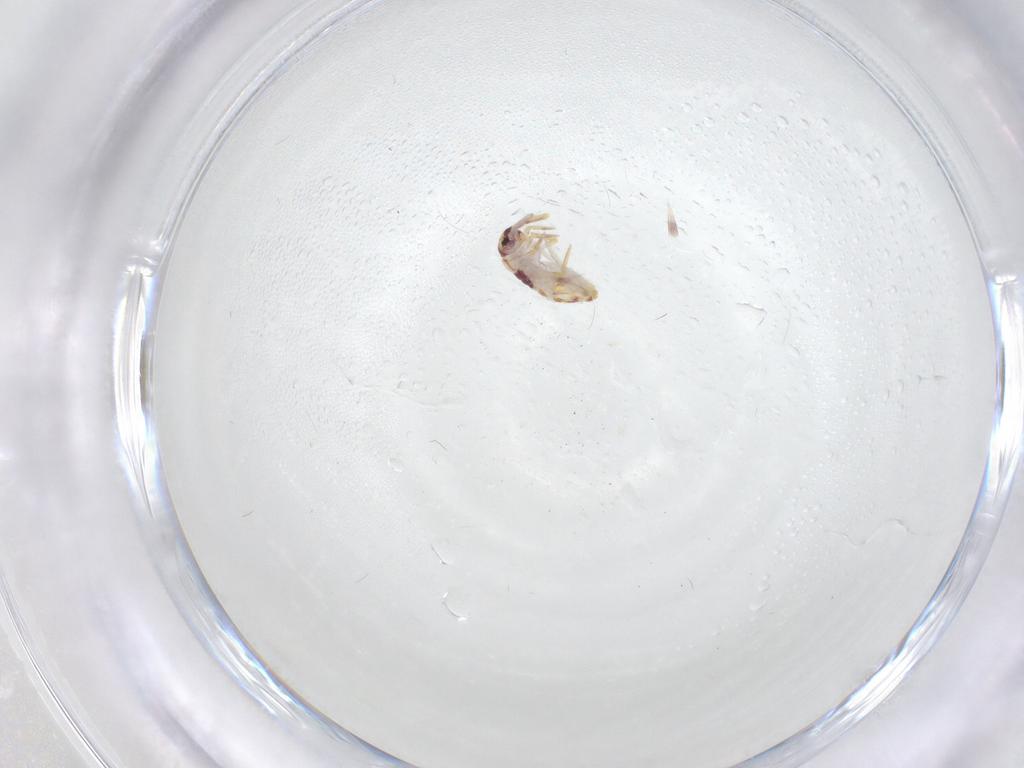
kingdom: Animalia
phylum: Arthropoda
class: Collembola
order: Entomobryomorpha
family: Entomobryidae
